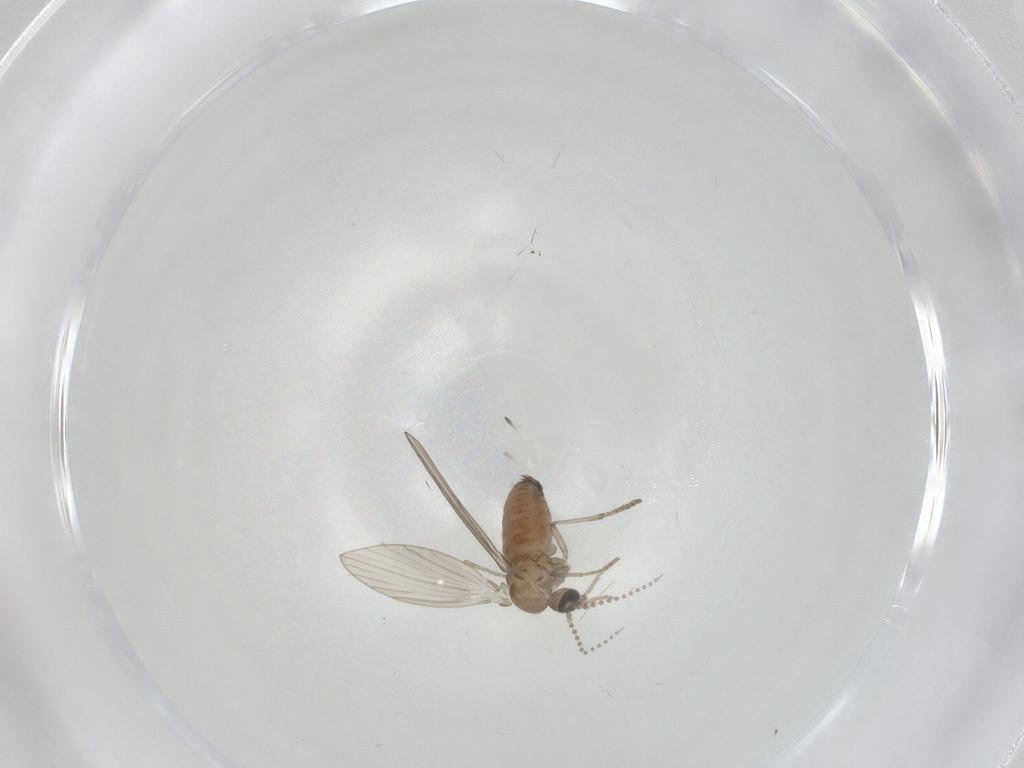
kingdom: Animalia
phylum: Arthropoda
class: Insecta
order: Diptera
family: Psychodidae
